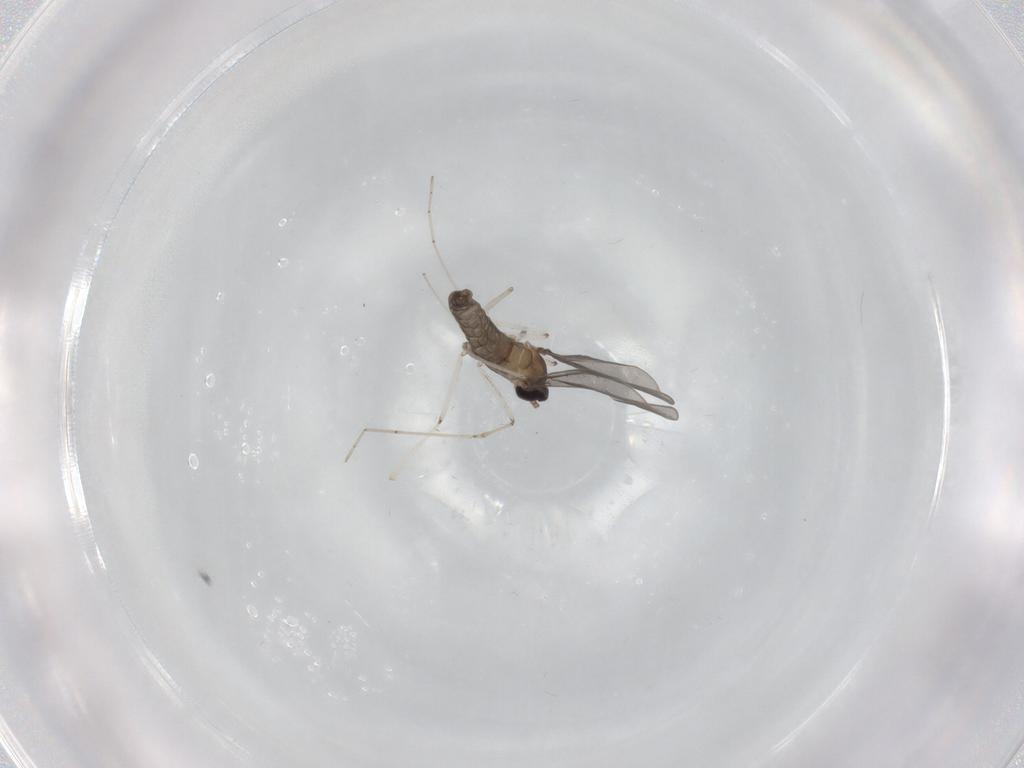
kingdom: Animalia
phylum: Arthropoda
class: Insecta
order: Diptera
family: Cecidomyiidae
